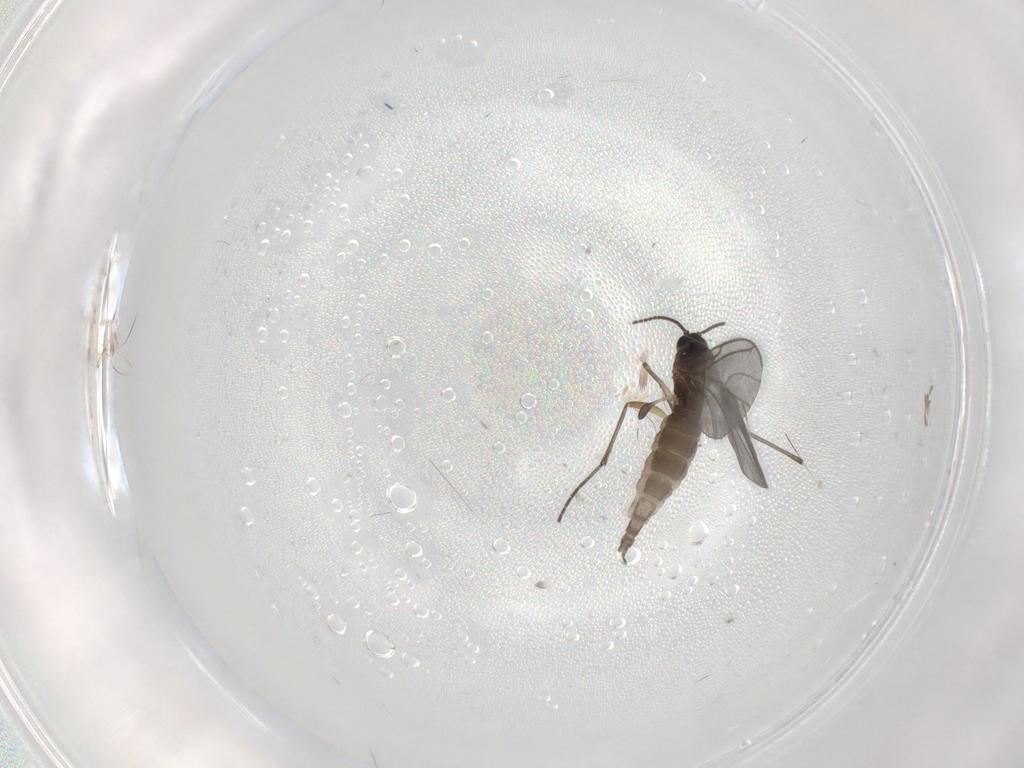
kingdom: Animalia
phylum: Arthropoda
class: Insecta
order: Diptera
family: Sciaridae
